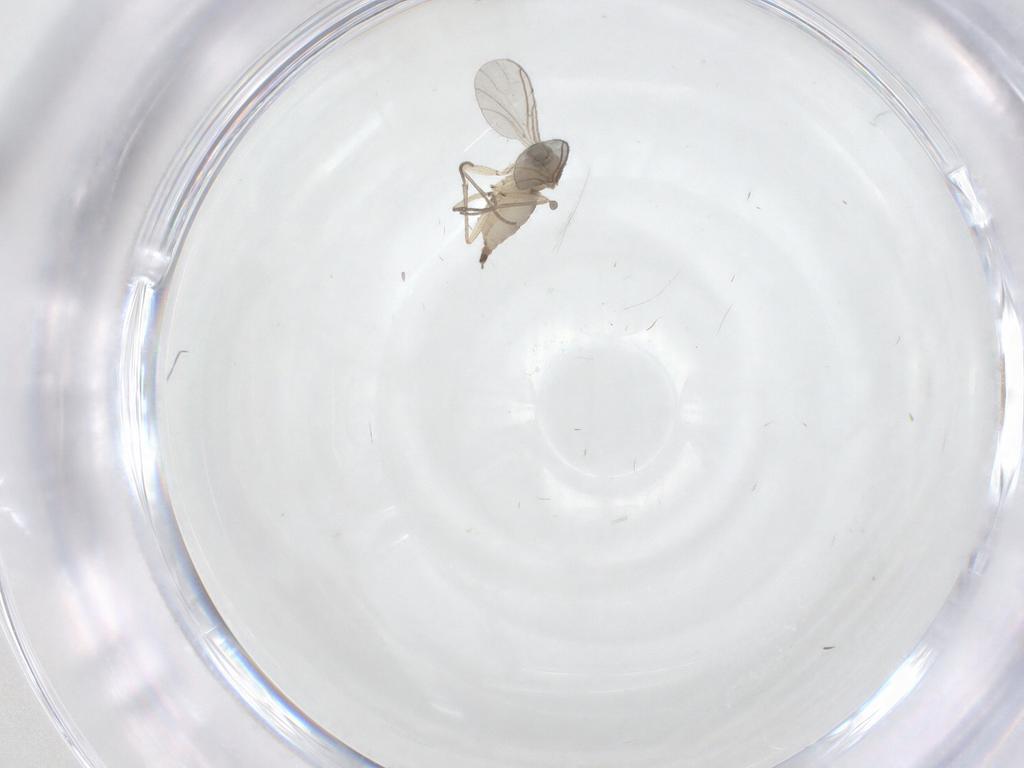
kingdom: Animalia
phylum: Arthropoda
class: Insecta
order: Diptera
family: Sciaridae
